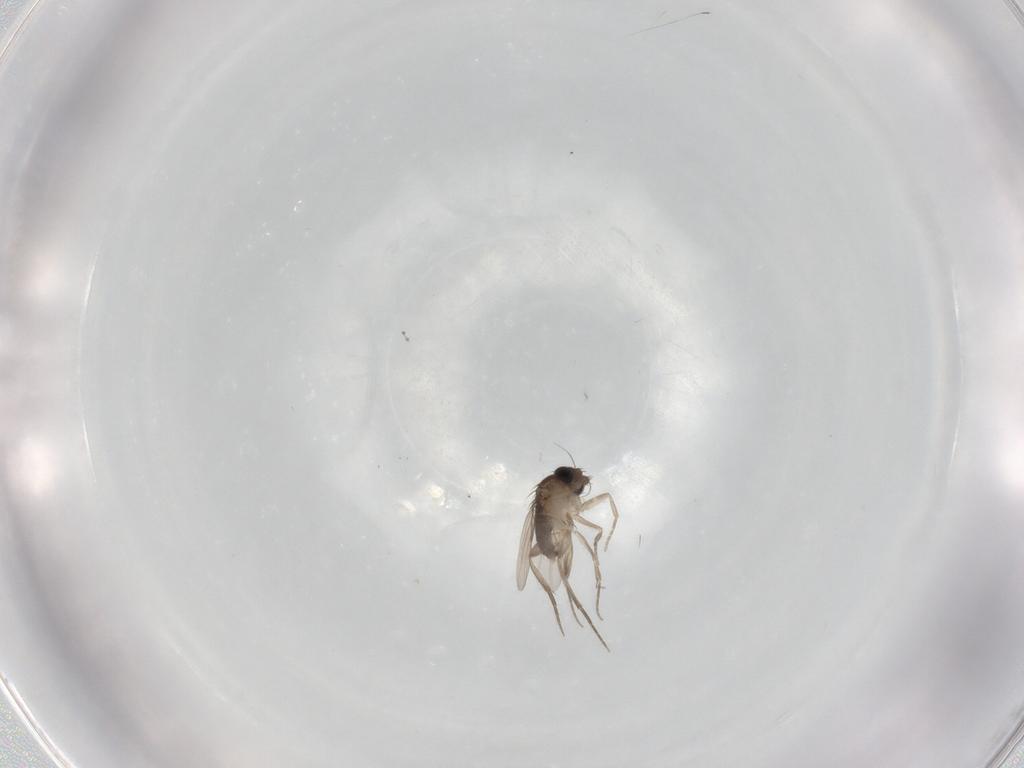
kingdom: Animalia
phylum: Arthropoda
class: Insecta
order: Diptera
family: Phoridae
